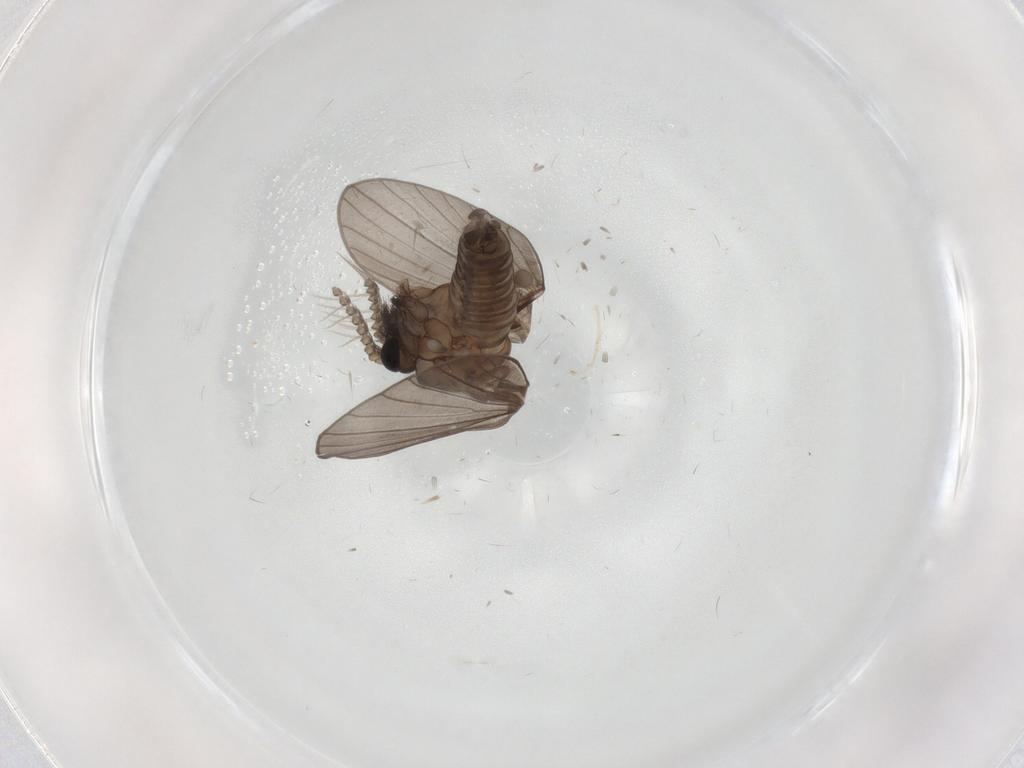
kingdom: Animalia
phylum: Arthropoda
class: Insecta
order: Diptera
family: Psychodidae
